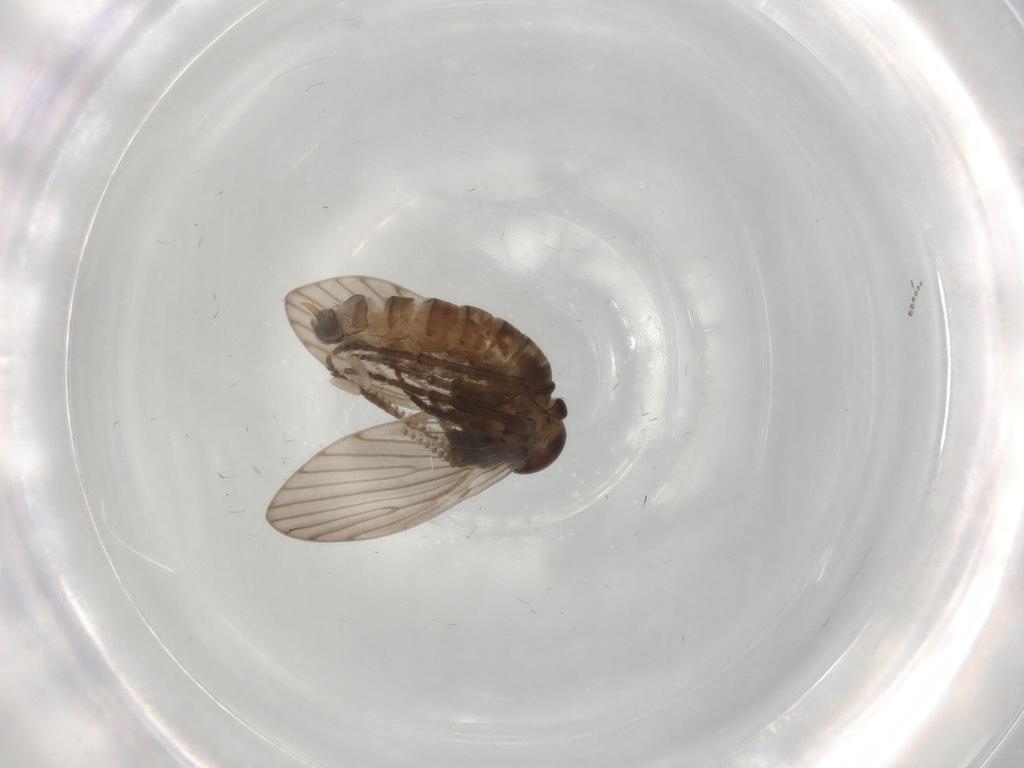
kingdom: Animalia
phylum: Arthropoda
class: Insecta
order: Diptera
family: Psychodidae
